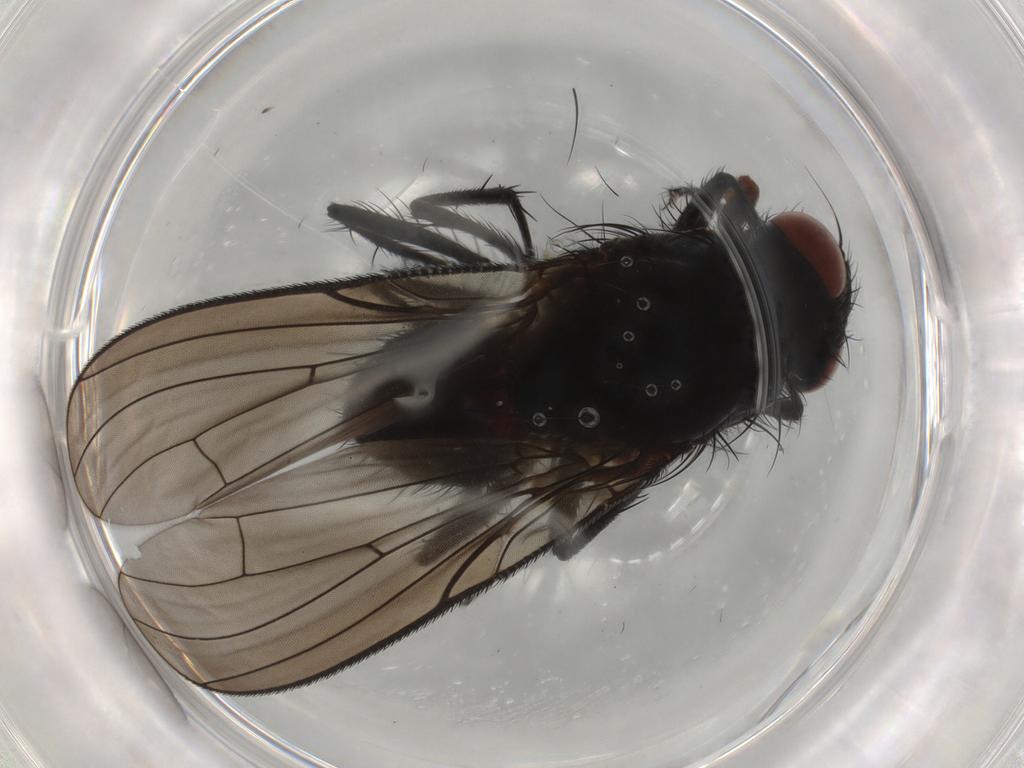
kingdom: Animalia
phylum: Arthropoda
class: Insecta
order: Diptera
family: Anthomyiidae
